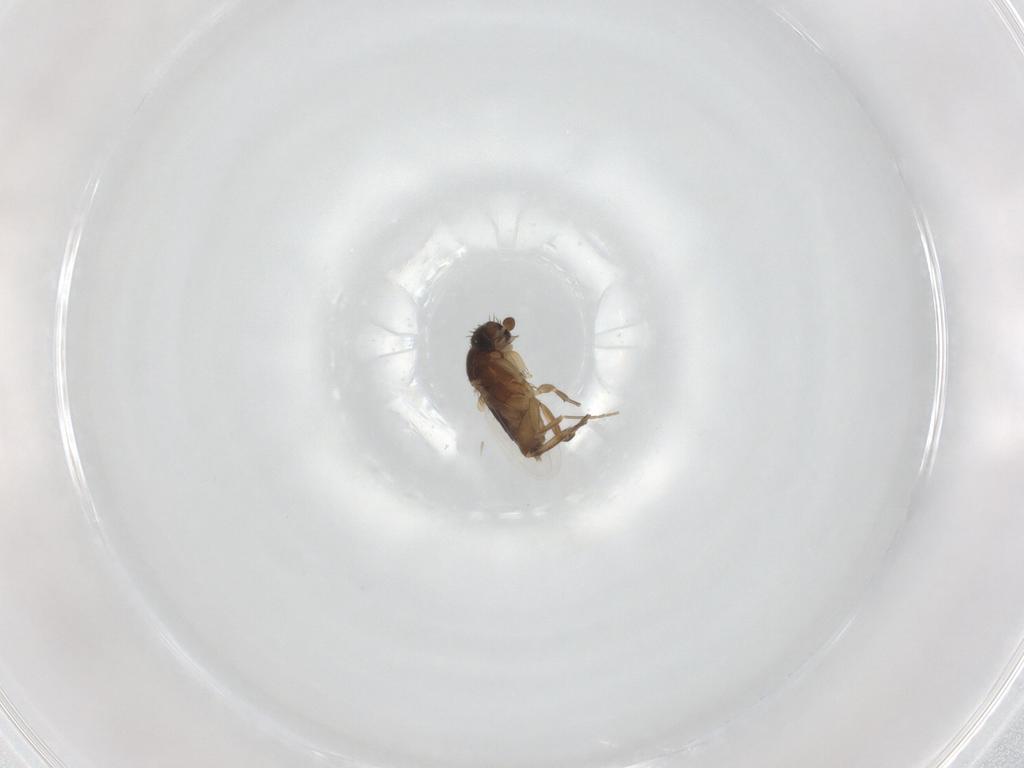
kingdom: Animalia
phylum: Arthropoda
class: Insecta
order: Diptera
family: Phoridae
